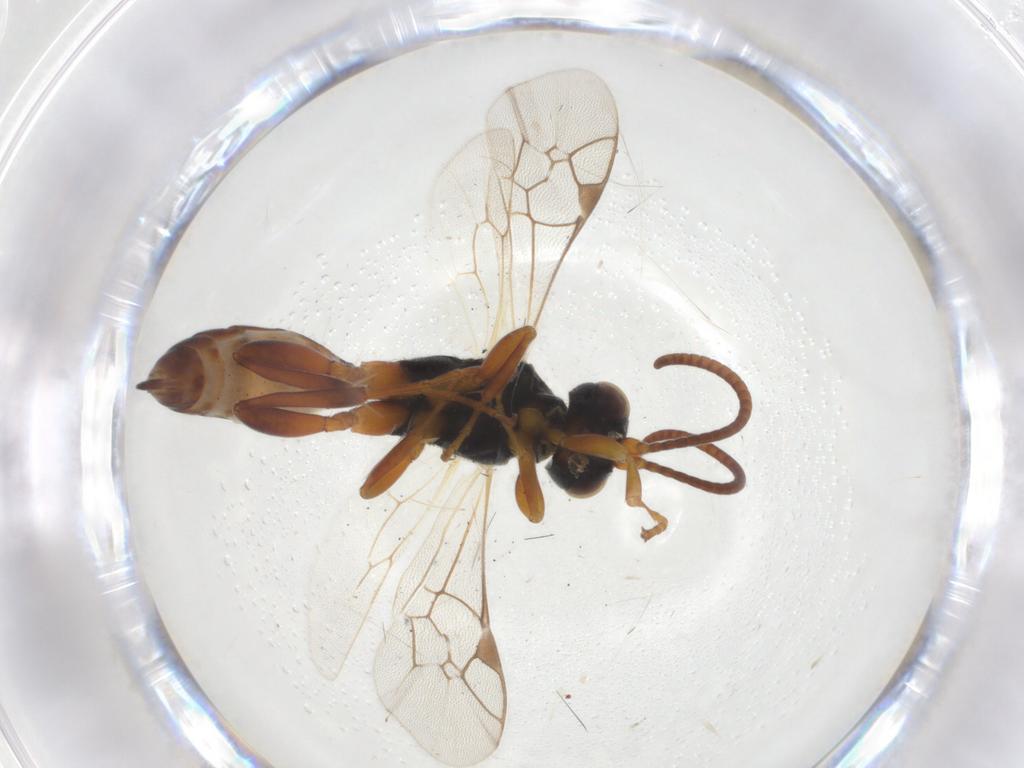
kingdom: Animalia
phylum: Arthropoda
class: Insecta
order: Hymenoptera
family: Ichneumonidae
